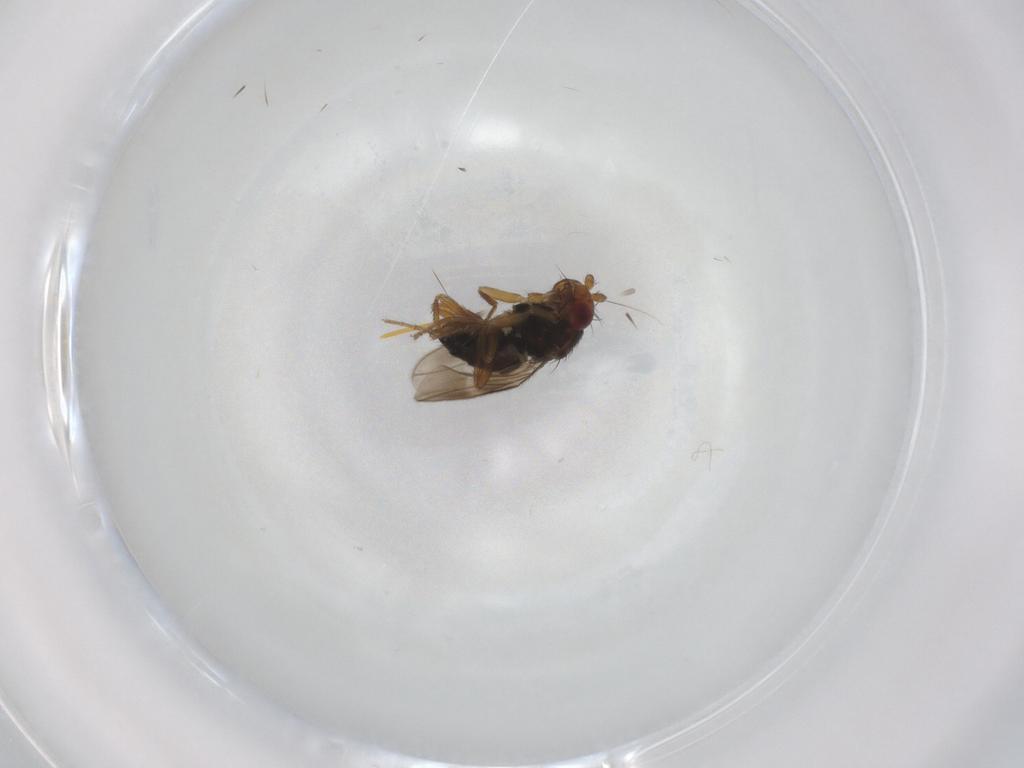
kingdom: Animalia
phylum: Arthropoda
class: Insecta
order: Diptera
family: Sphaeroceridae
